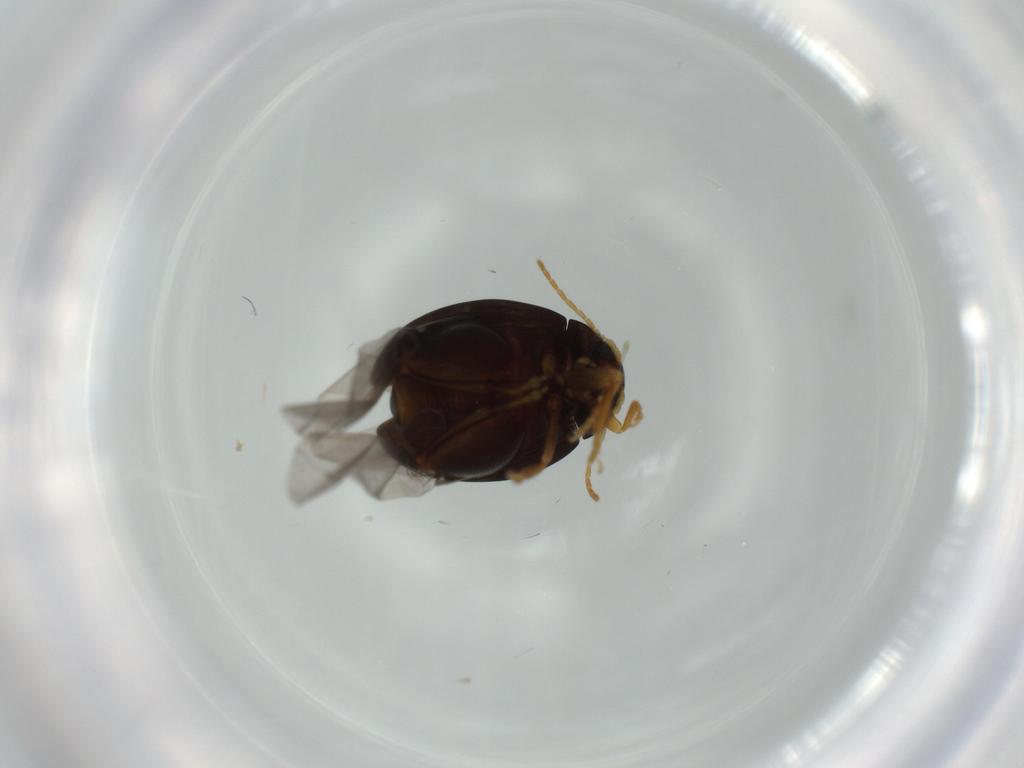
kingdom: Animalia
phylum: Arthropoda
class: Insecta
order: Coleoptera
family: Chrysomelidae
